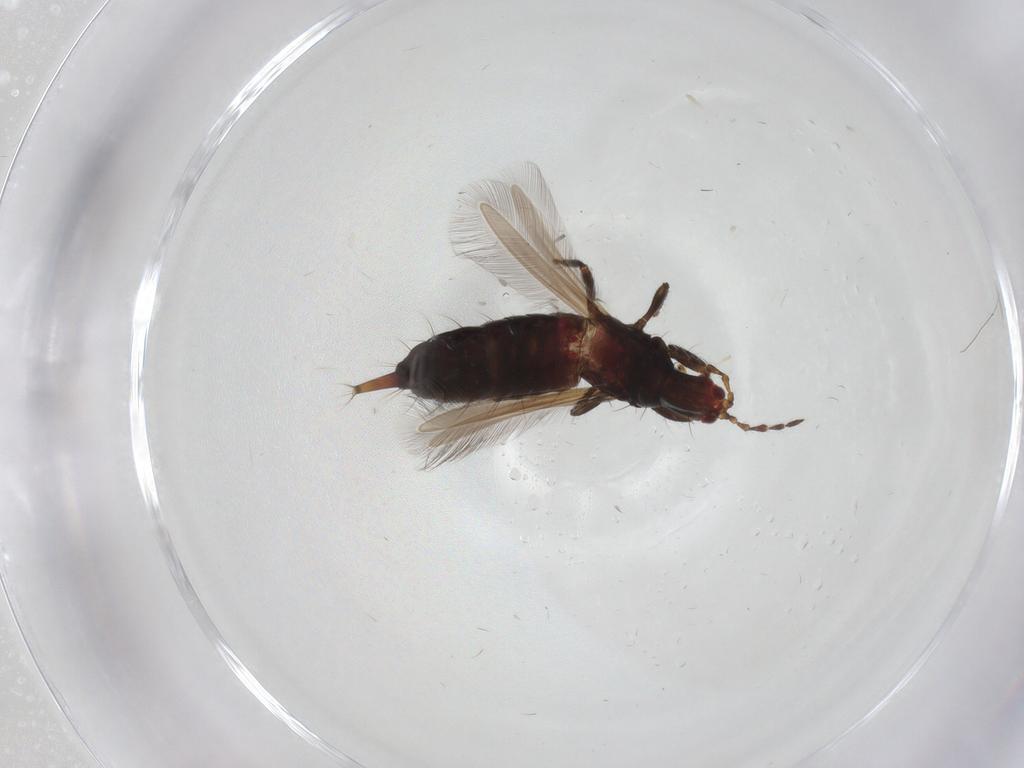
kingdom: Animalia
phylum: Arthropoda
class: Insecta
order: Thysanoptera
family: Phlaeothripidae
